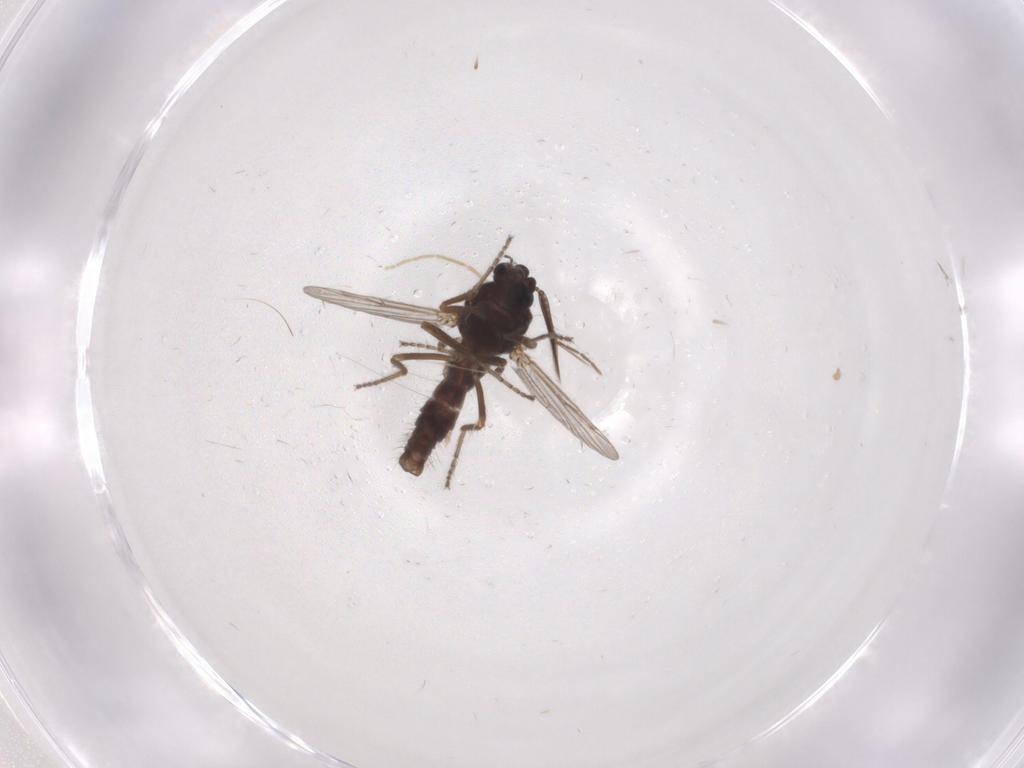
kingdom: Animalia
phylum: Arthropoda
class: Insecta
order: Diptera
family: Ceratopogonidae
